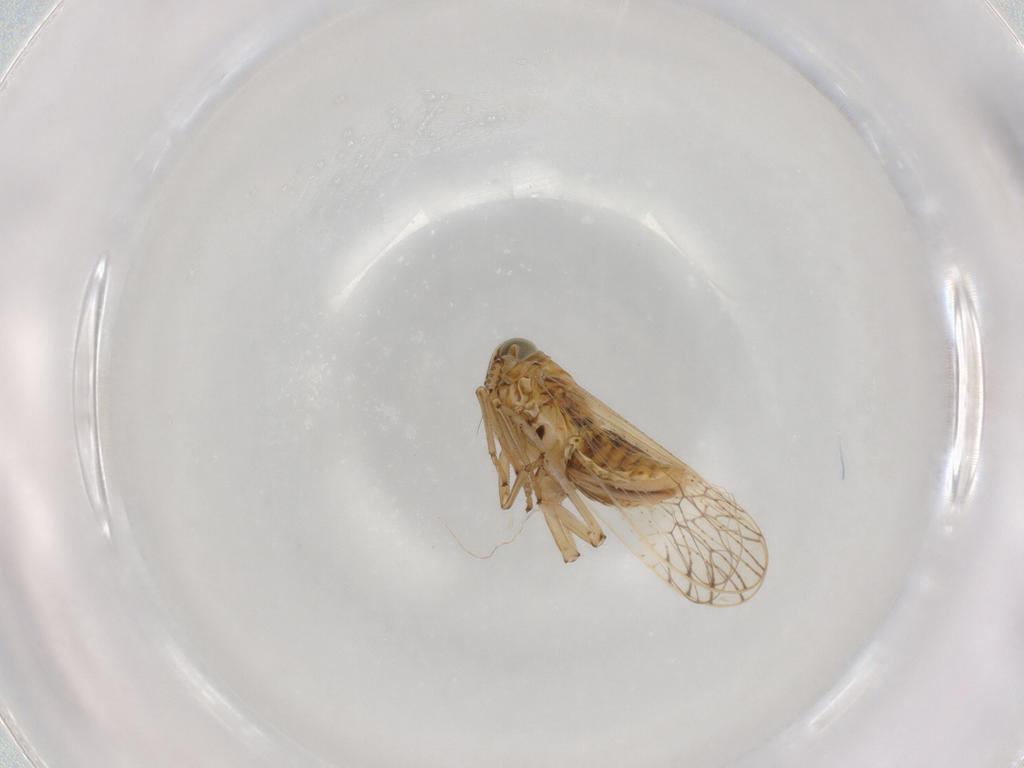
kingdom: Animalia
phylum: Arthropoda
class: Insecta
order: Hemiptera
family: Delphacidae
